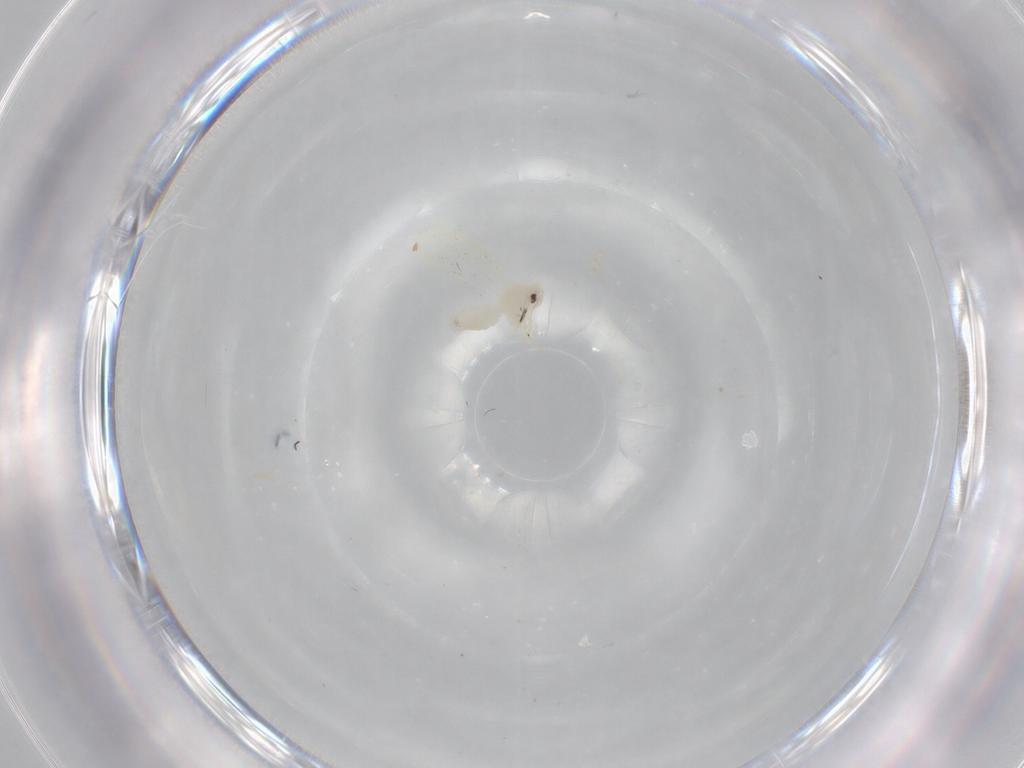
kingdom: Animalia
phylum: Arthropoda
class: Insecta
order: Hemiptera
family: Aleyrodidae
